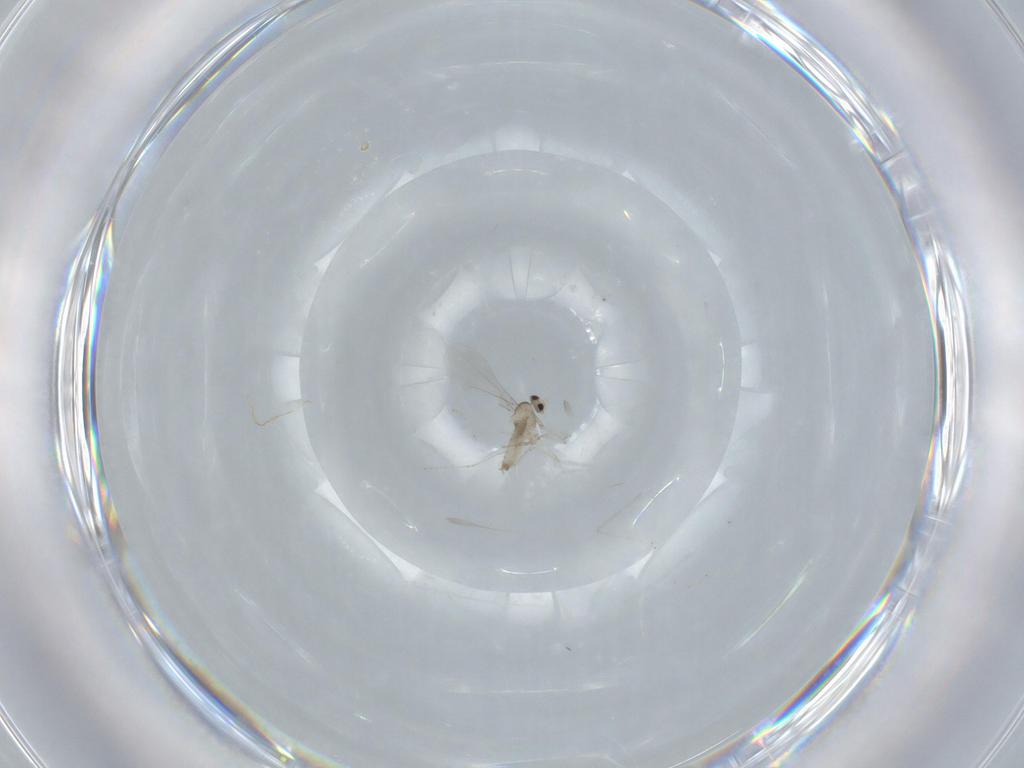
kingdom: Animalia
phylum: Arthropoda
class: Insecta
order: Diptera
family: Cecidomyiidae
